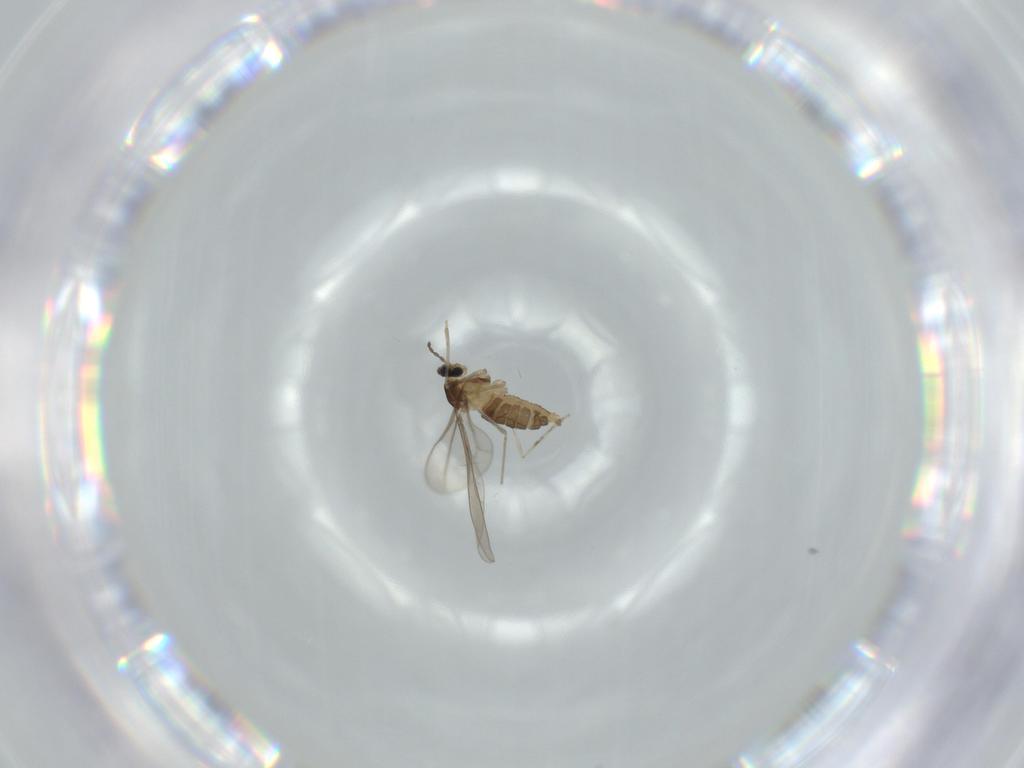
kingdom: Animalia
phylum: Arthropoda
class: Insecta
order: Diptera
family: Cecidomyiidae
